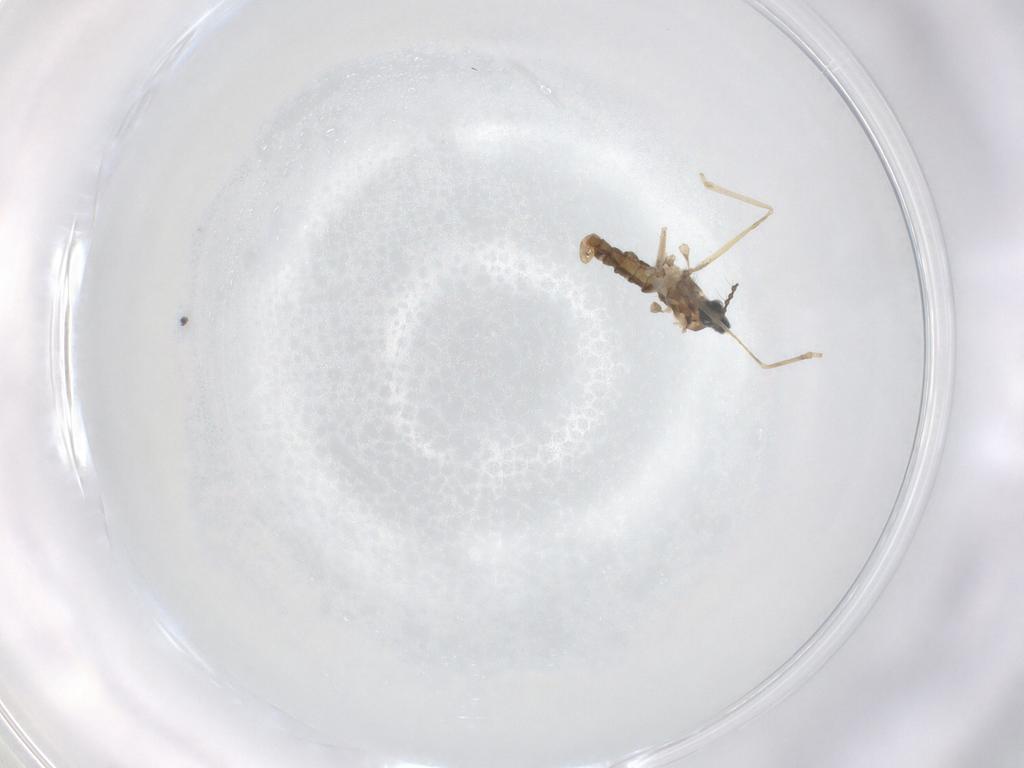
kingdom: Animalia
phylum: Arthropoda
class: Insecta
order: Diptera
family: Cecidomyiidae
